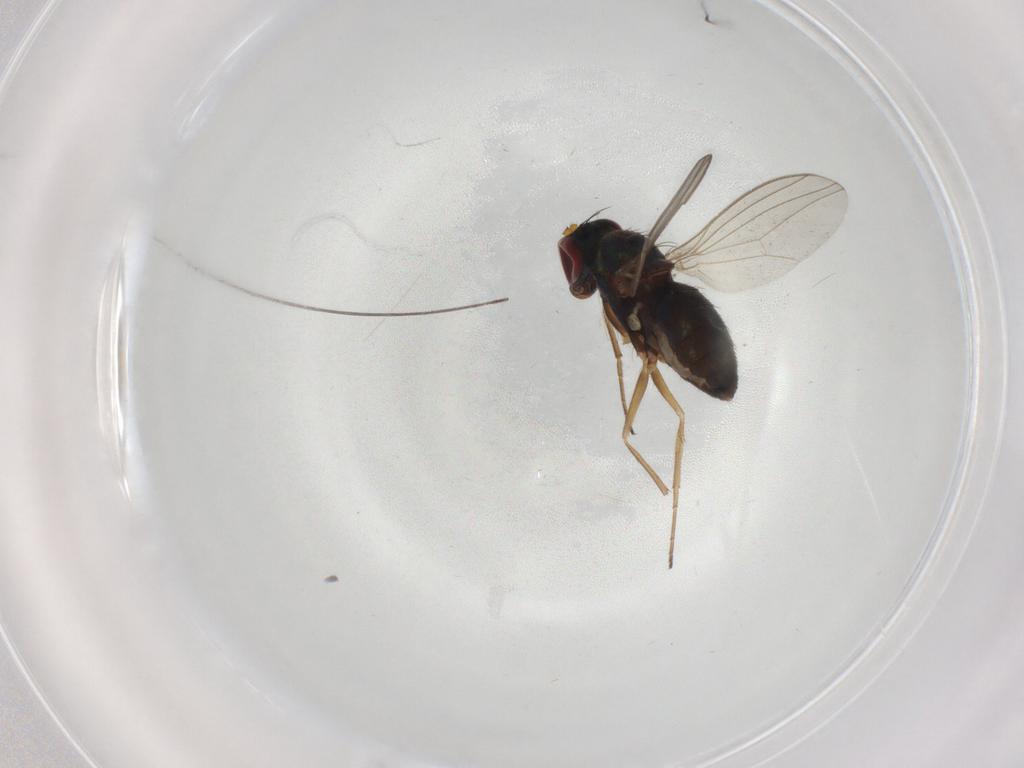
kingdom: Animalia
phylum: Arthropoda
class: Insecta
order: Diptera
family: Dolichopodidae
